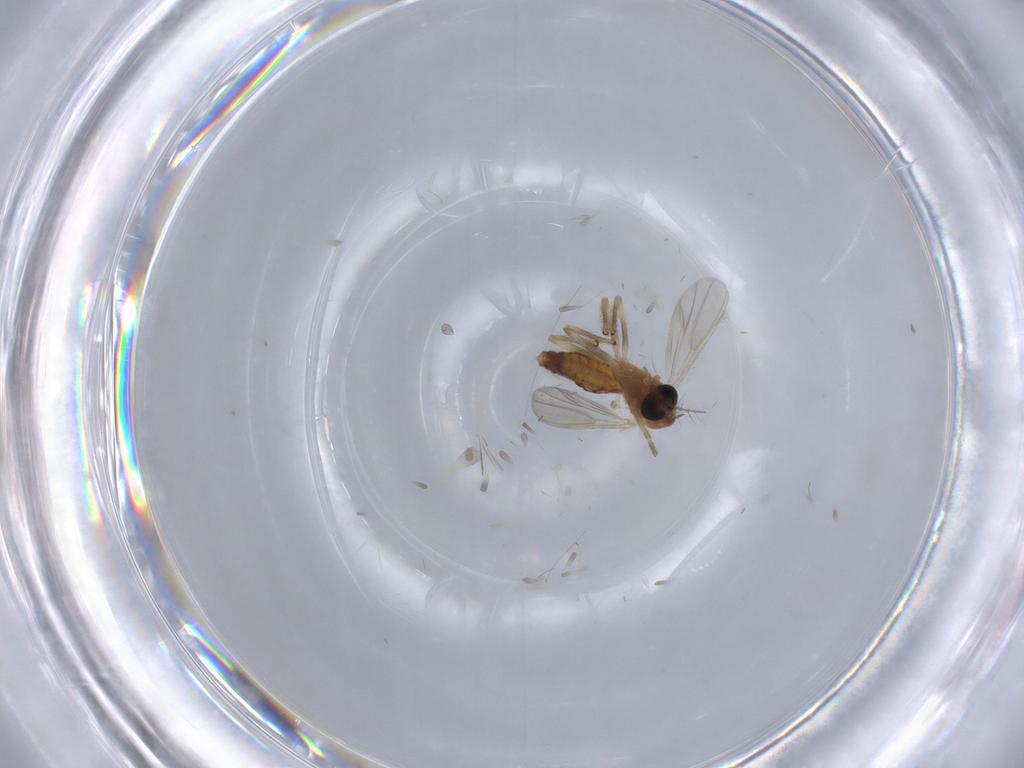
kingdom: Animalia
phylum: Arthropoda
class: Insecta
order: Diptera
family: Chironomidae
